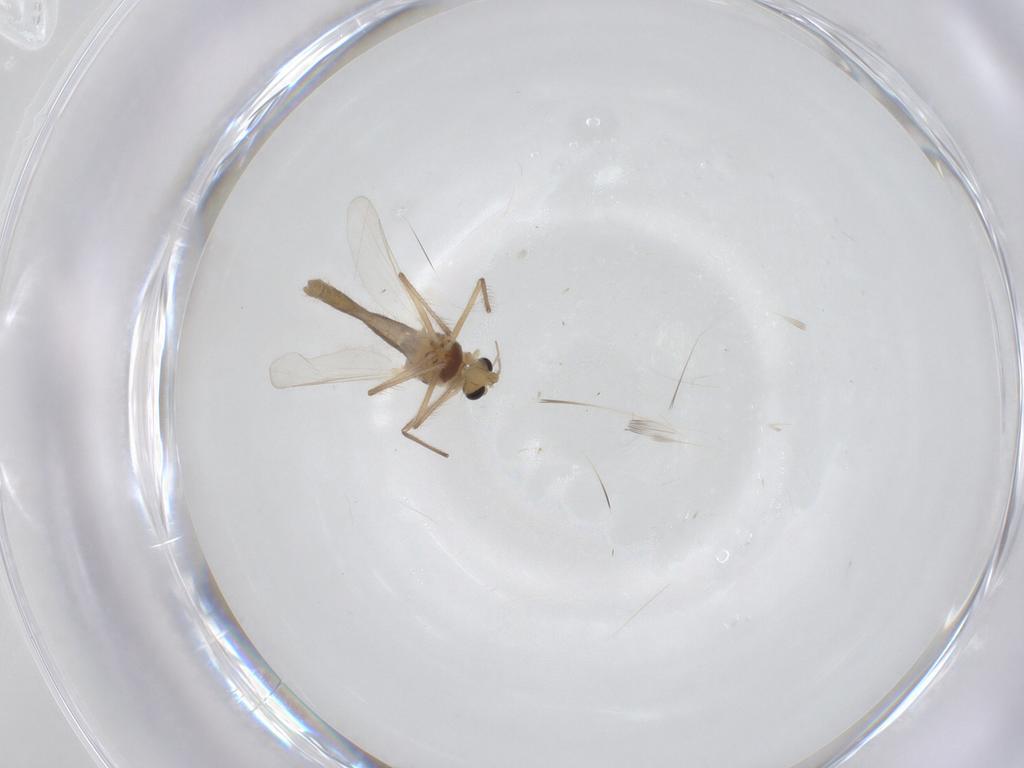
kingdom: Animalia
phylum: Arthropoda
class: Insecta
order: Diptera
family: Chironomidae
